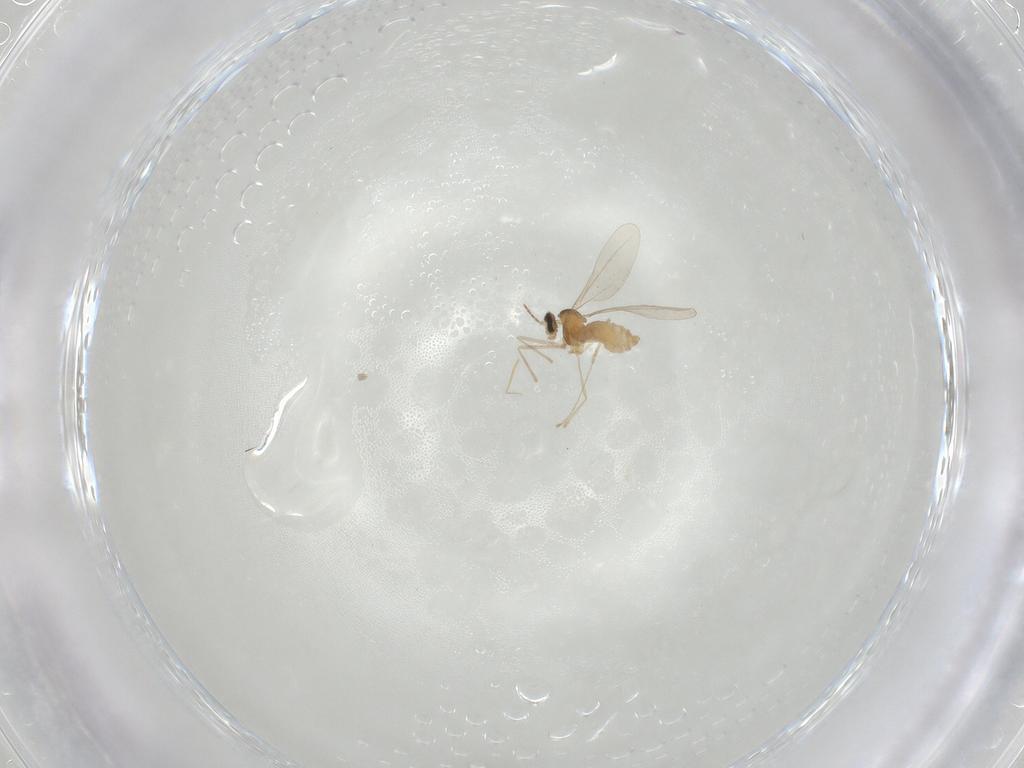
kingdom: Animalia
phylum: Arthropoda
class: Insecta
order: Diptera
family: Cecidomyiidae
